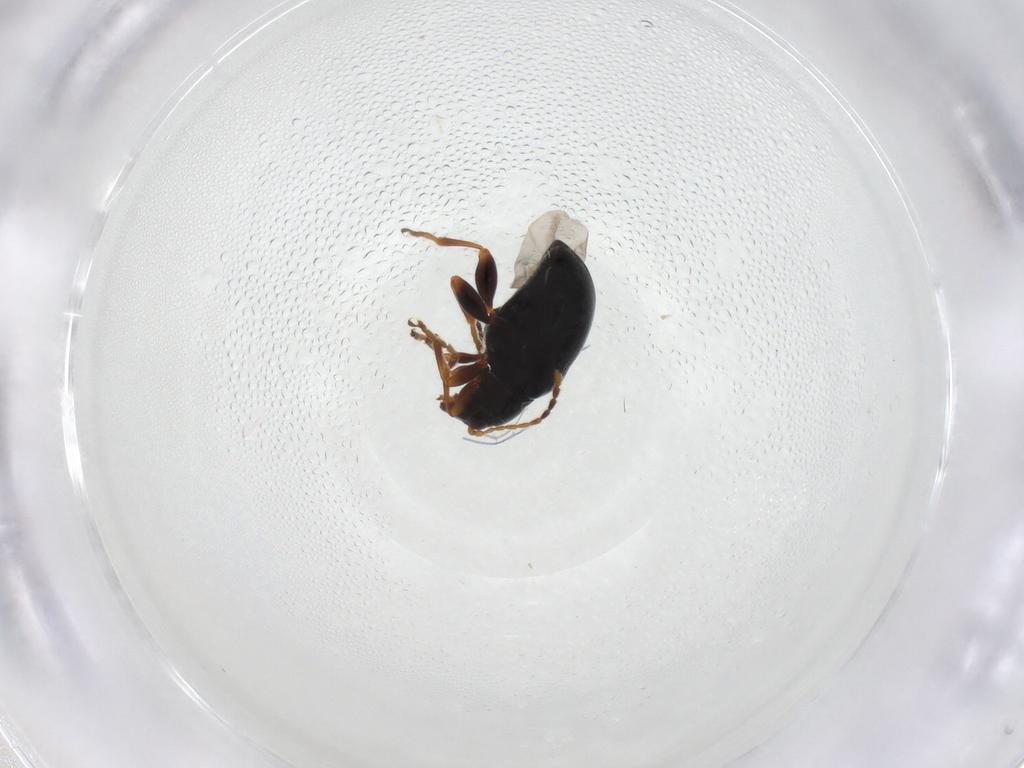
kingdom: Animalia
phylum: Arthropoda
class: Insecta
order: Coleoptera
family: Chrysomelidae
